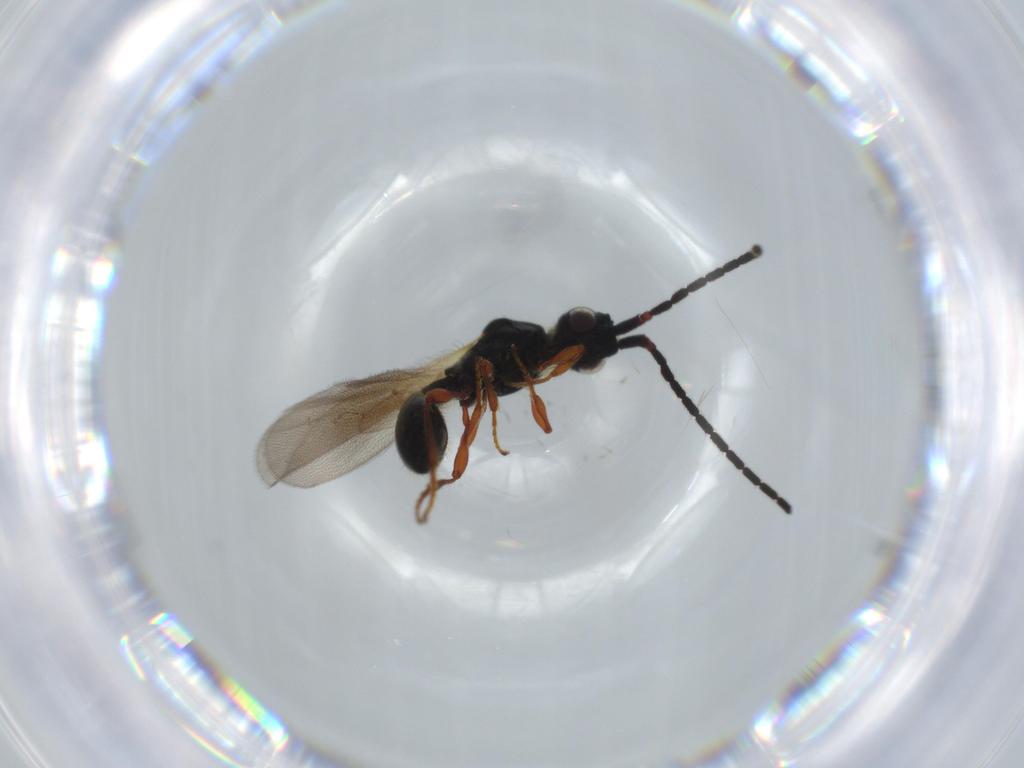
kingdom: Animalia
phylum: Arthropoda
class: Insecta
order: Hymenoptera
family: Diapriidae
